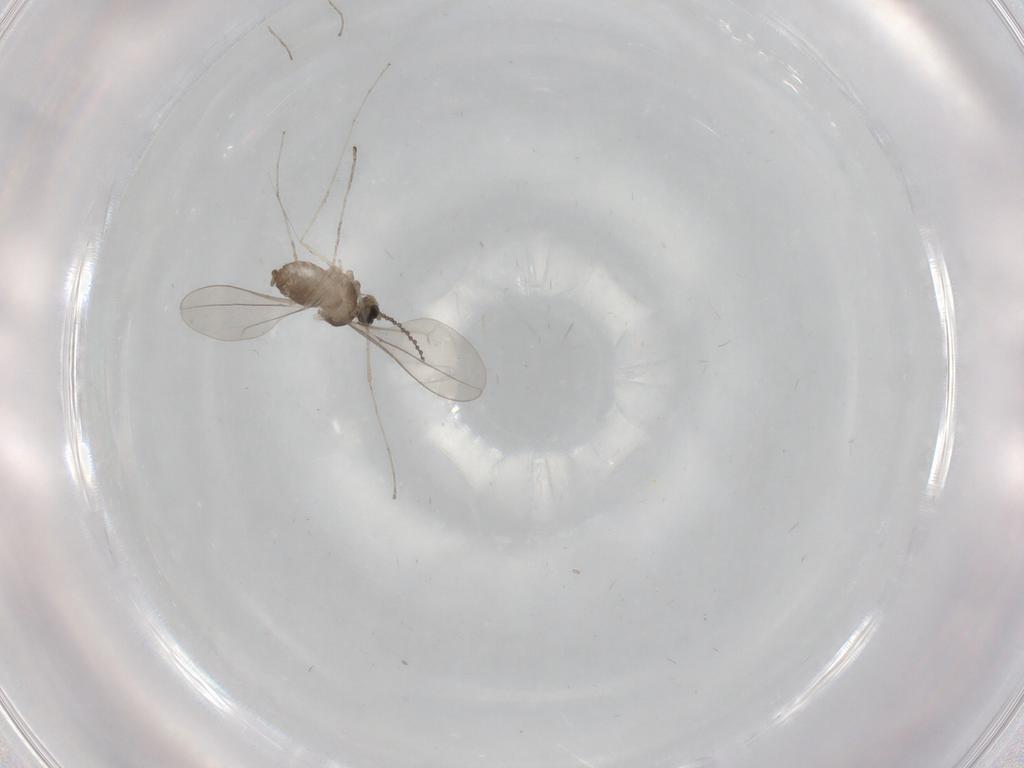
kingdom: Animalia
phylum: Arthropoda
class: Insecta
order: Diptera
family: Cecidomyiidae
